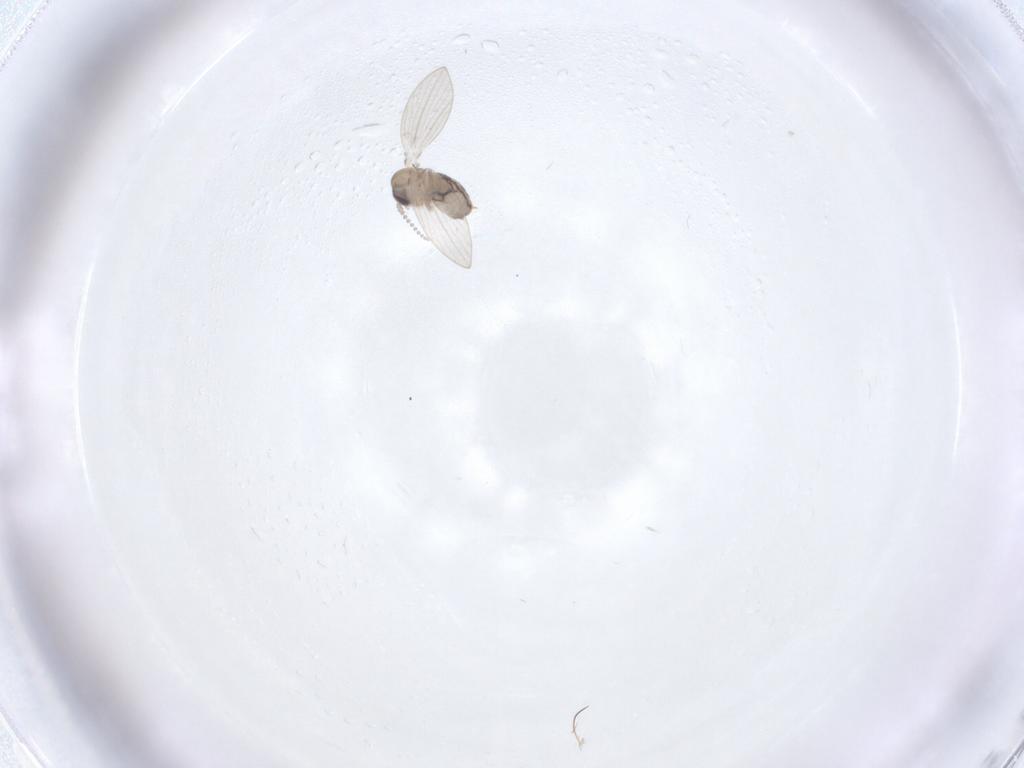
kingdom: Animalia
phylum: Arthropoda
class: Insecta
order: Diptera
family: Psychodidae
